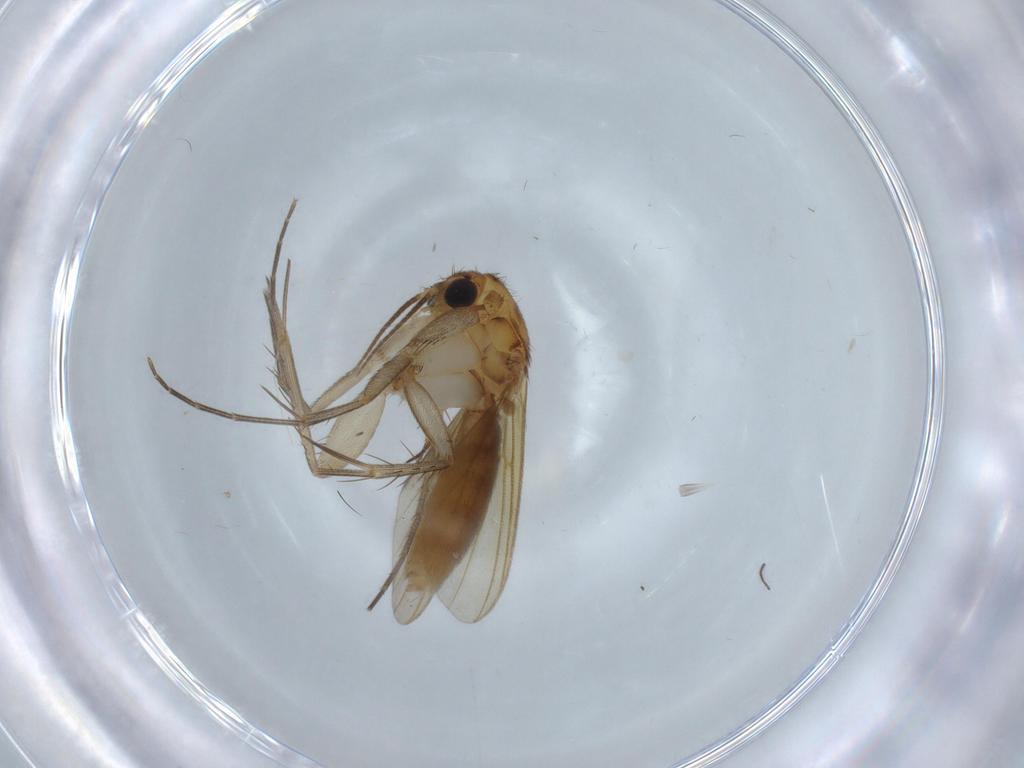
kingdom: Animalia
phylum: Arthropoda
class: Insecta
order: Diptera
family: Mycetophilidae
